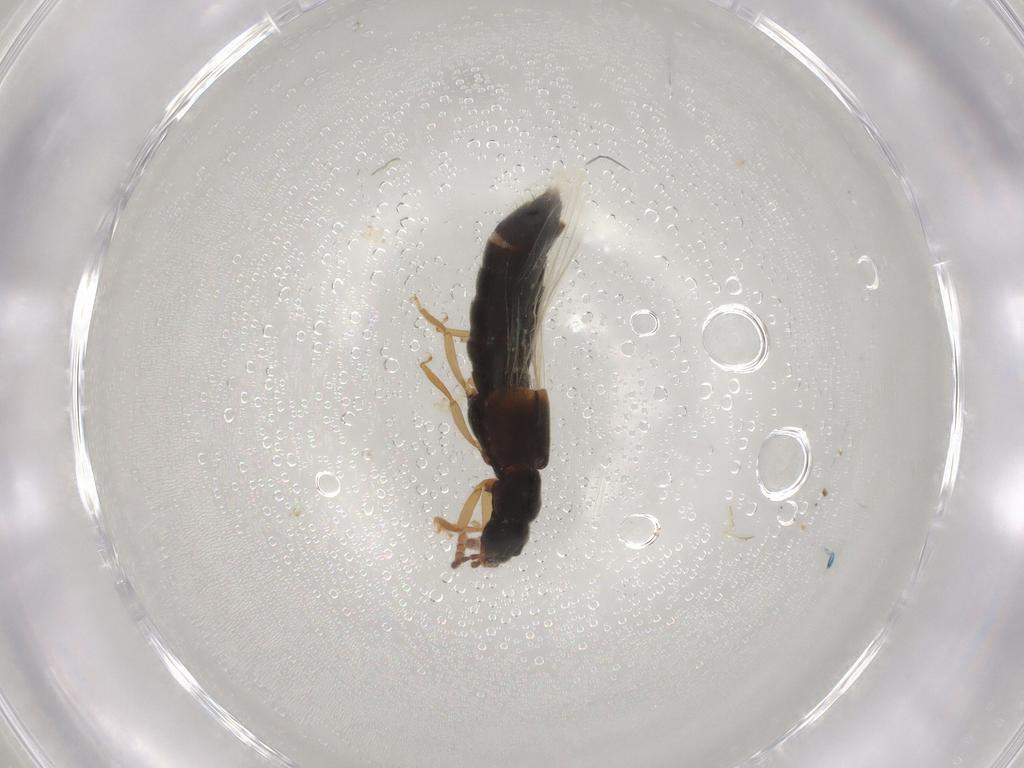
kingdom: Animalia
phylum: Arthropoda
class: Insecta
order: Coleoptera
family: Staphylinidae
